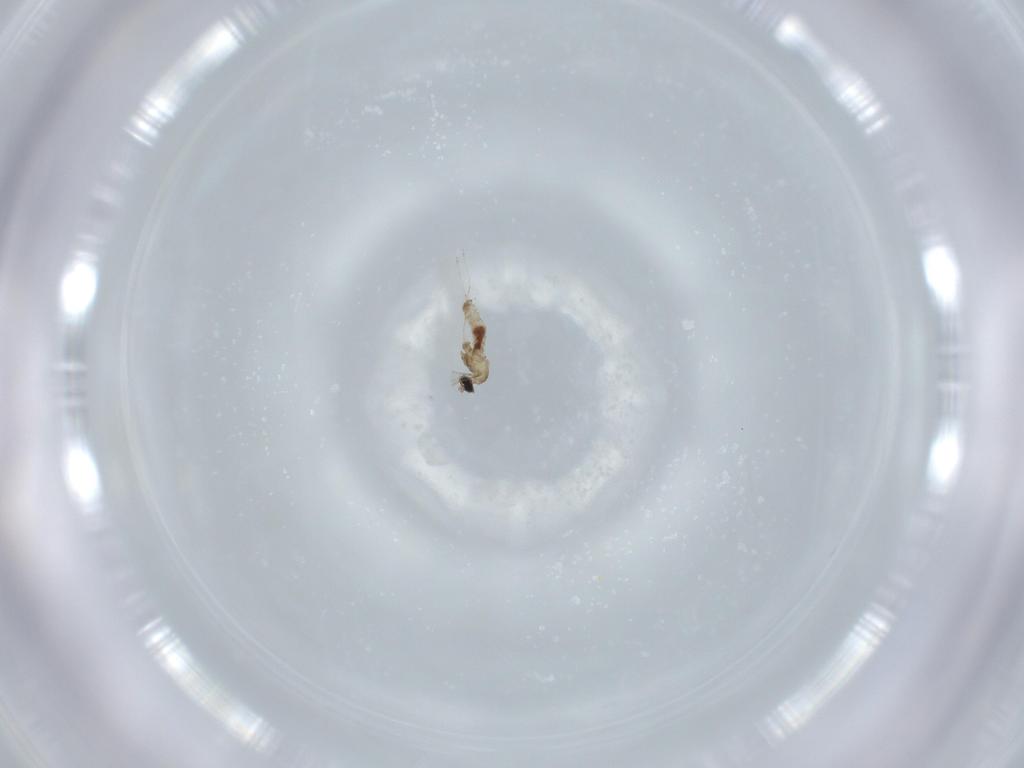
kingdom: Animalia
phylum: Arthropoda
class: Insecta
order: Diptera
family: Cecidomyiidae
